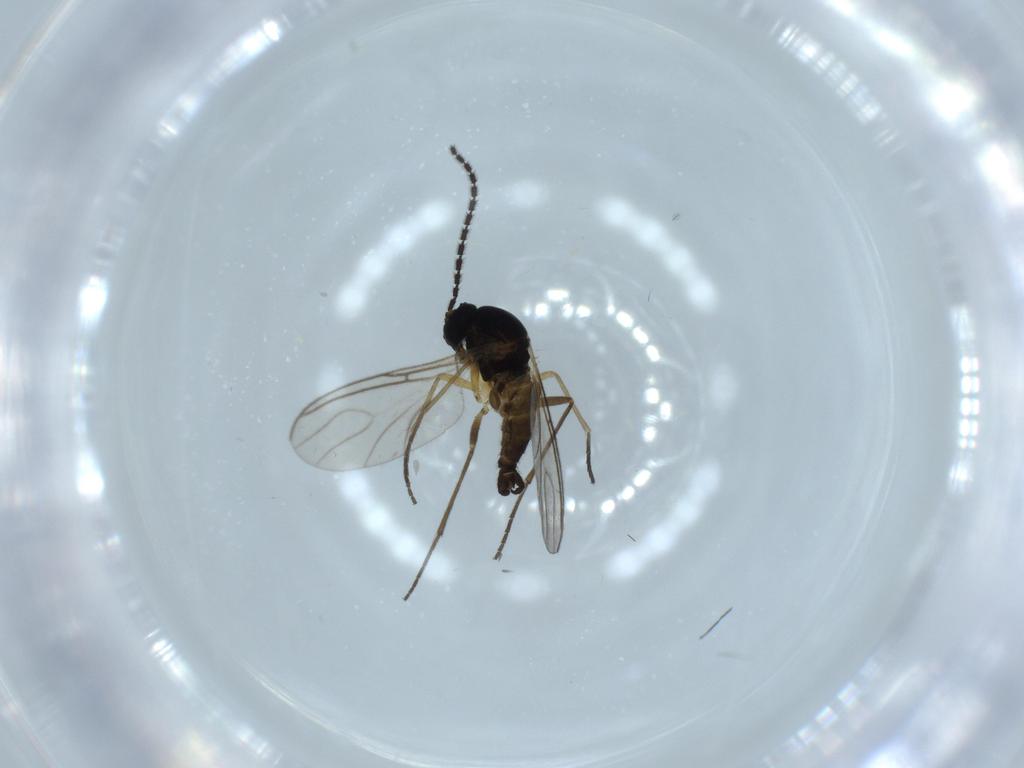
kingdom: Animalia
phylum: Arthropoda
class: Insecta
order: Diptera
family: Sciaridae
